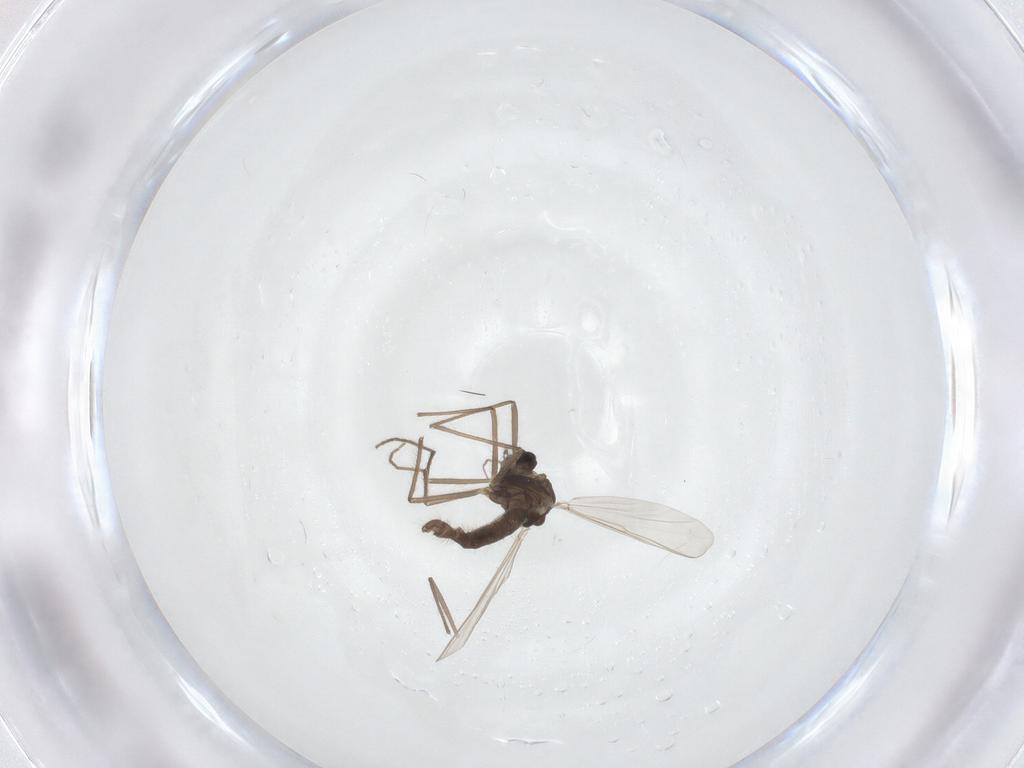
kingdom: Animalia
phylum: Arthropoda
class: Insecta
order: Diptera
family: Chironomidae
